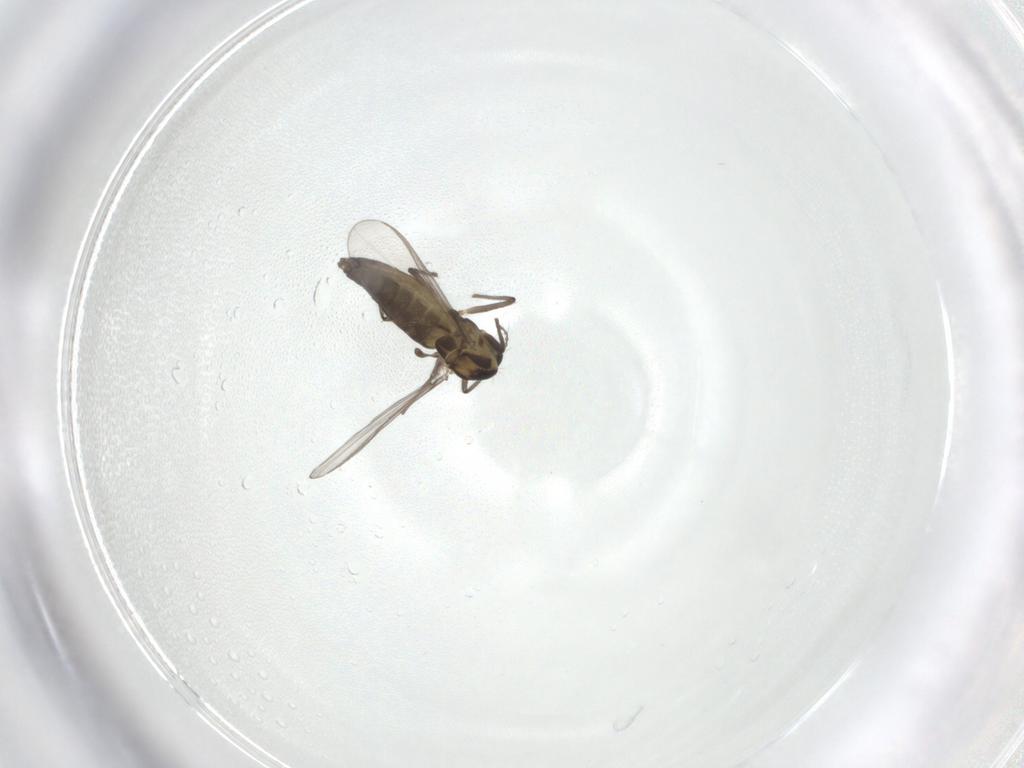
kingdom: Animalia
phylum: Arthropoda
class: Insecta
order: Diptera
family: Chironomidae
